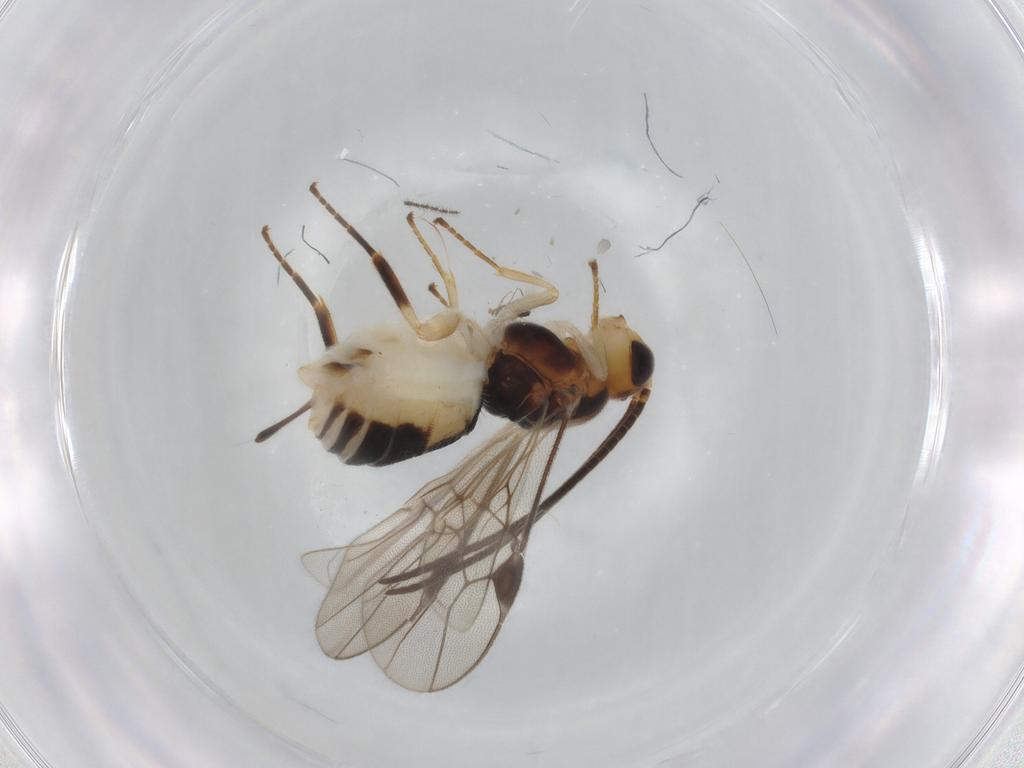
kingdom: Animalia
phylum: Arthropoda
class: Insecta
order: Hymenoptera
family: Braconidae
